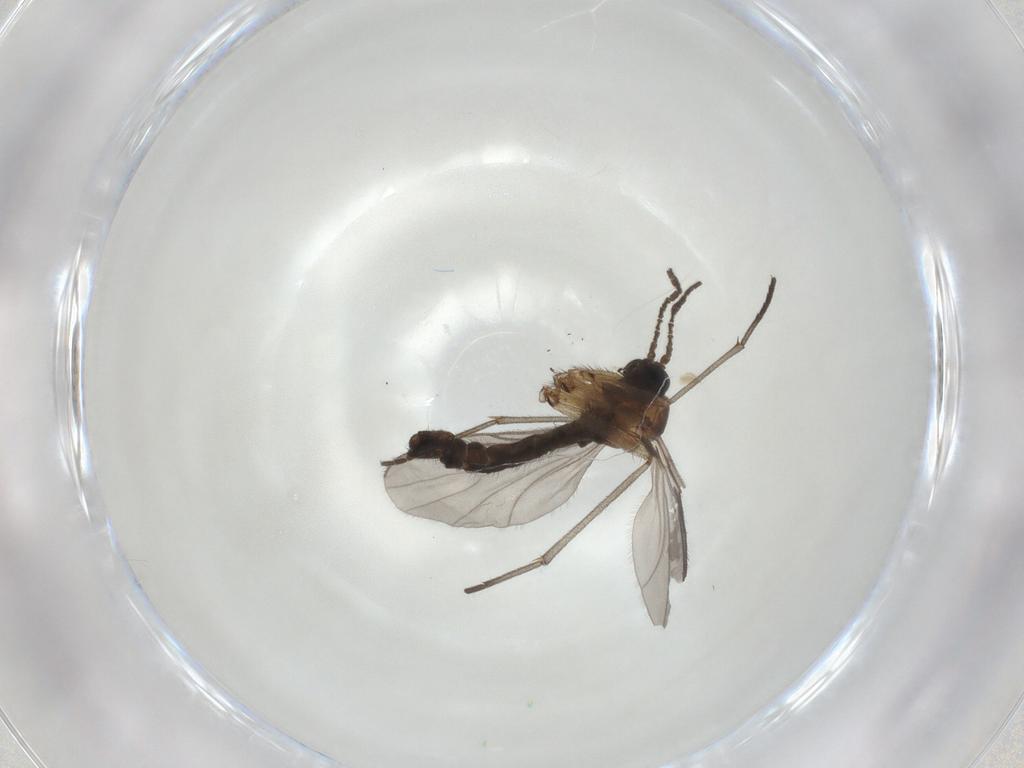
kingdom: Animalia
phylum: Arthropoda
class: Insecta
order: Diptera
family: Sciaridae
